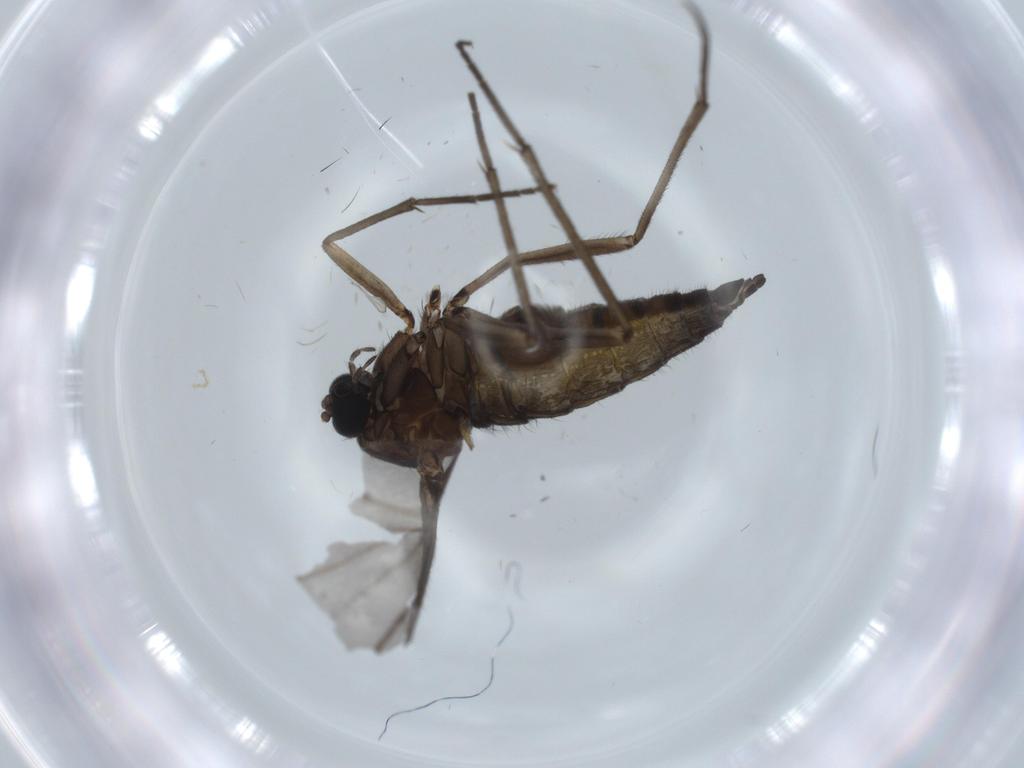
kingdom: Animalia
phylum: Arthropoda
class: Insecta
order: Diptera
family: Sciaridae
